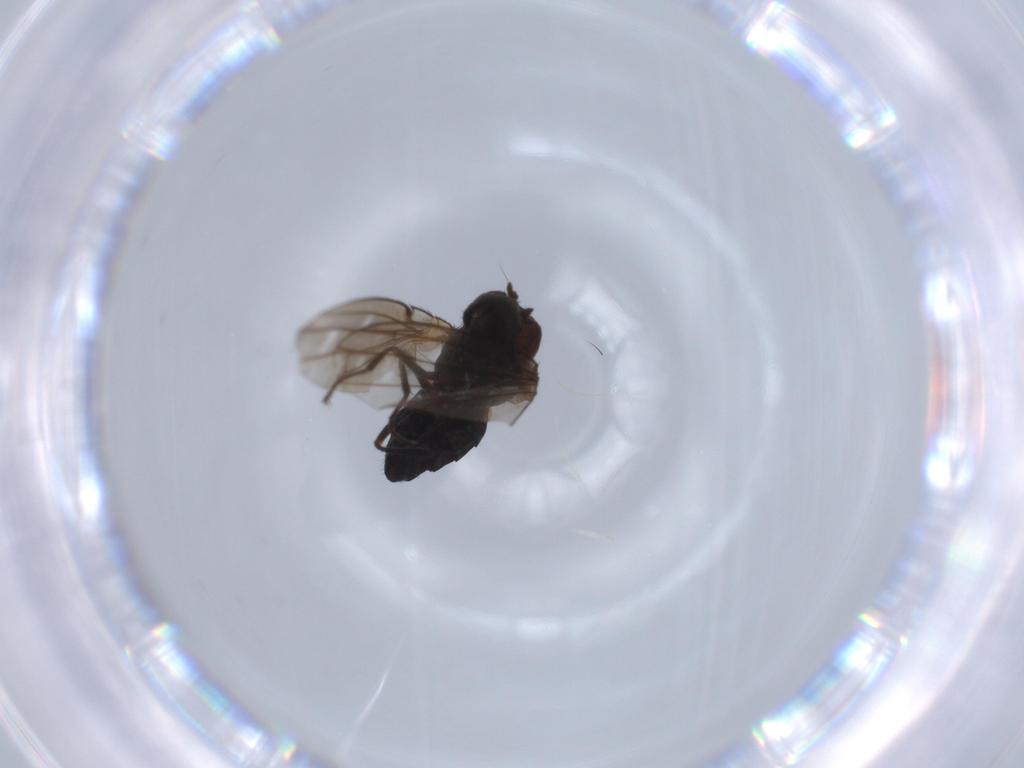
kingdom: Animalia
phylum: Arthropoda
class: Insecta
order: Diptera
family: Ephydridae
